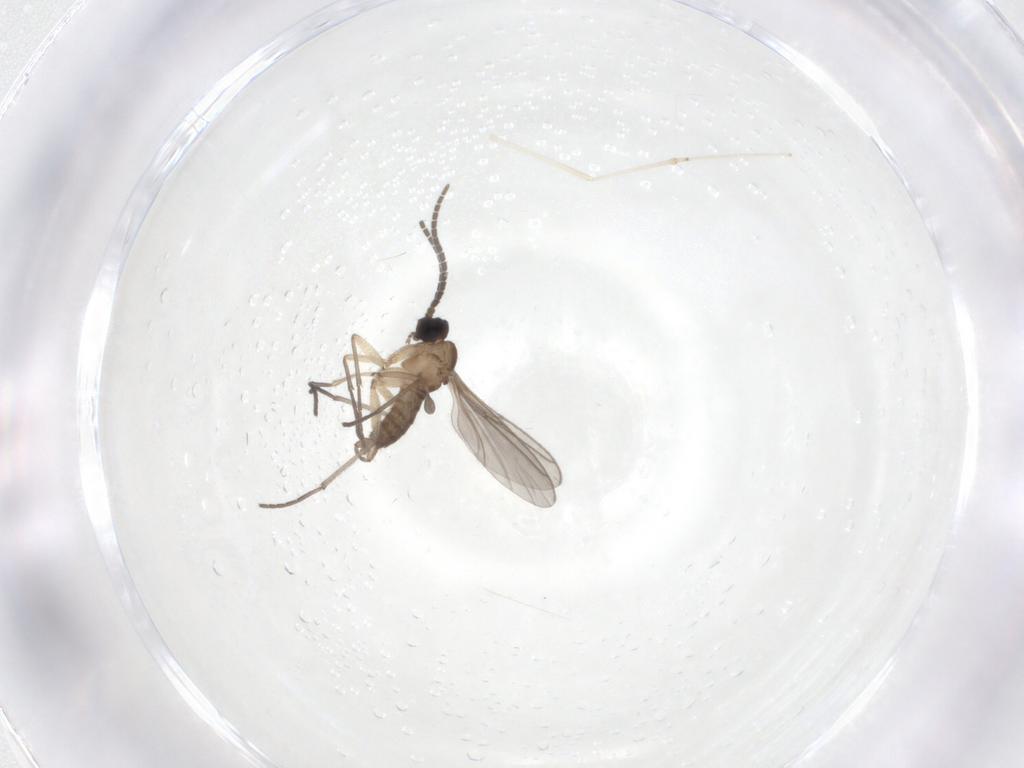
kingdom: Animalia
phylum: Arthropoda
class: Insecta
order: Diptera
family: Sciaridae
